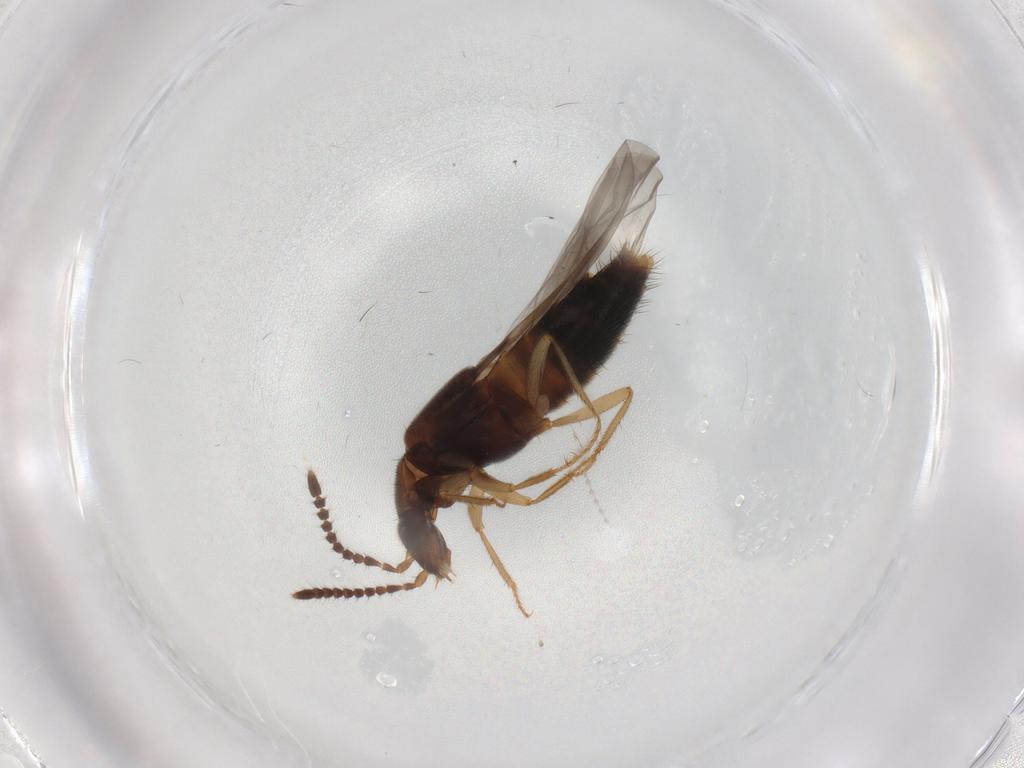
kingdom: Animalia
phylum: Arthropoda
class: Insecta
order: Coleoptera
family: Staphylinidae
